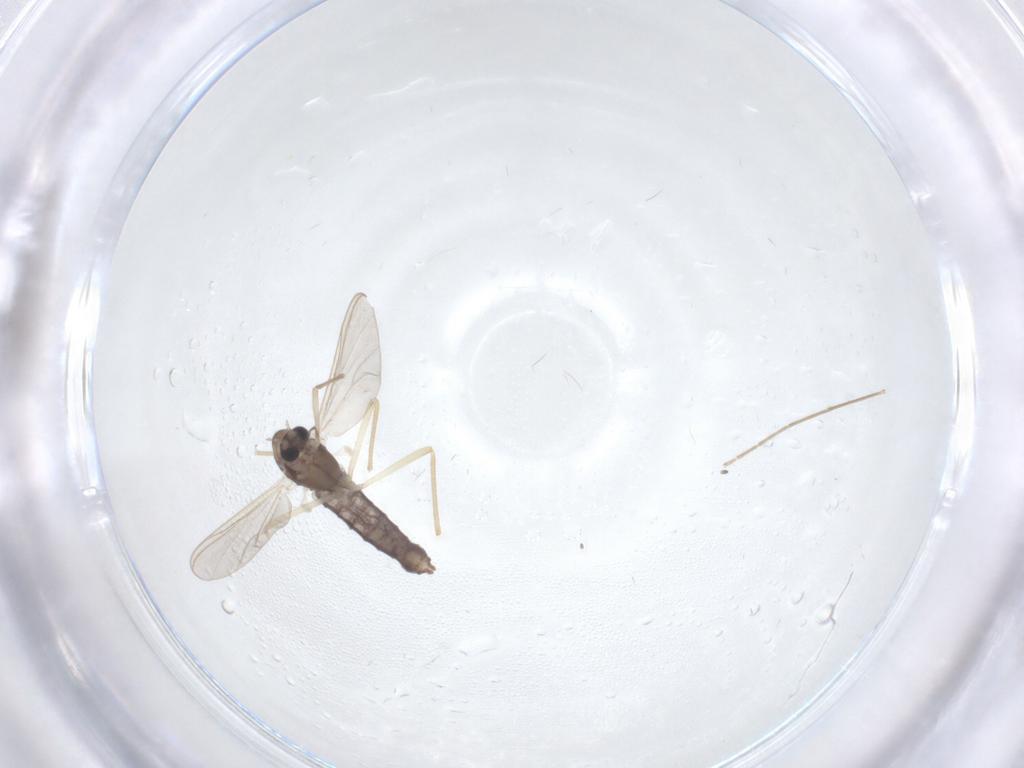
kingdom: Animalia
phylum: Arthropoda
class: Insecta
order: Diptera
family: Chironomidae
